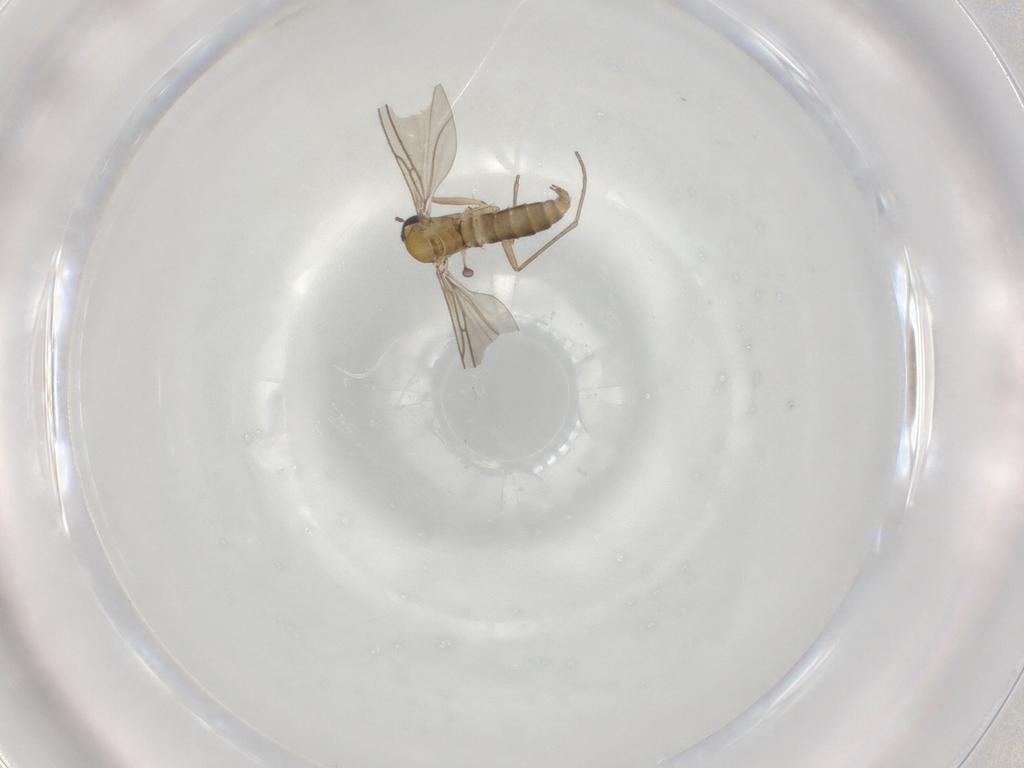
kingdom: Animalia
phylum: Arthropoda
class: Insecta
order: Diptera
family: Sciaridae
